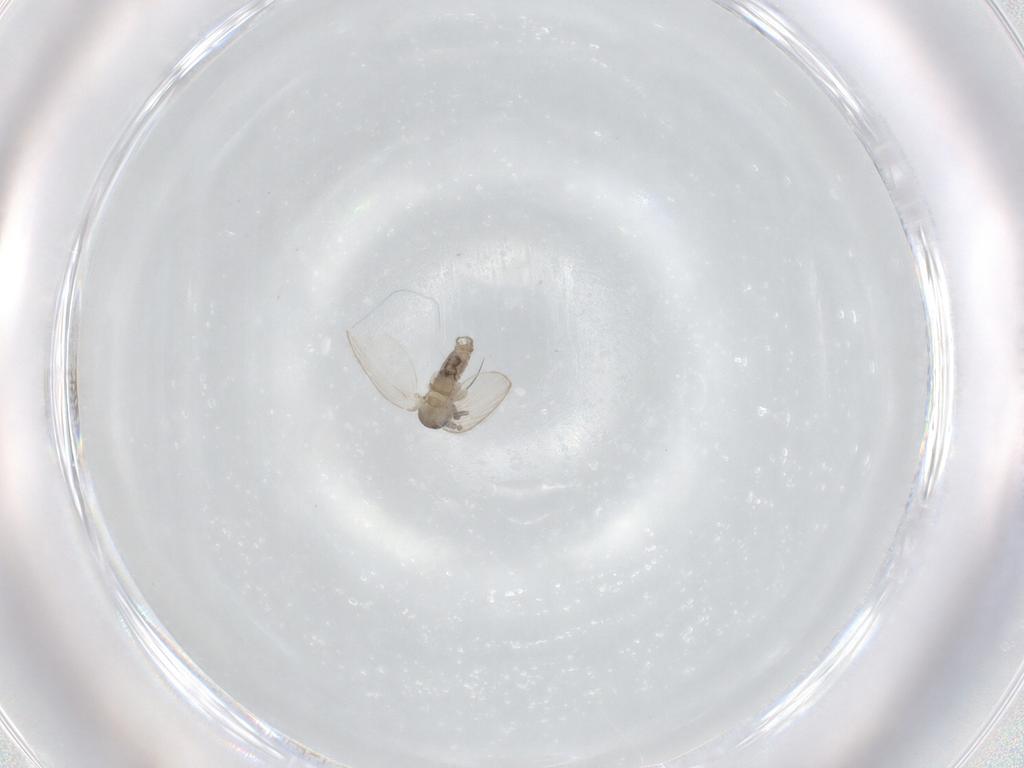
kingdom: Animalia
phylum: Arthropoda
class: Insecta
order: Diptera
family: Psychodidae
